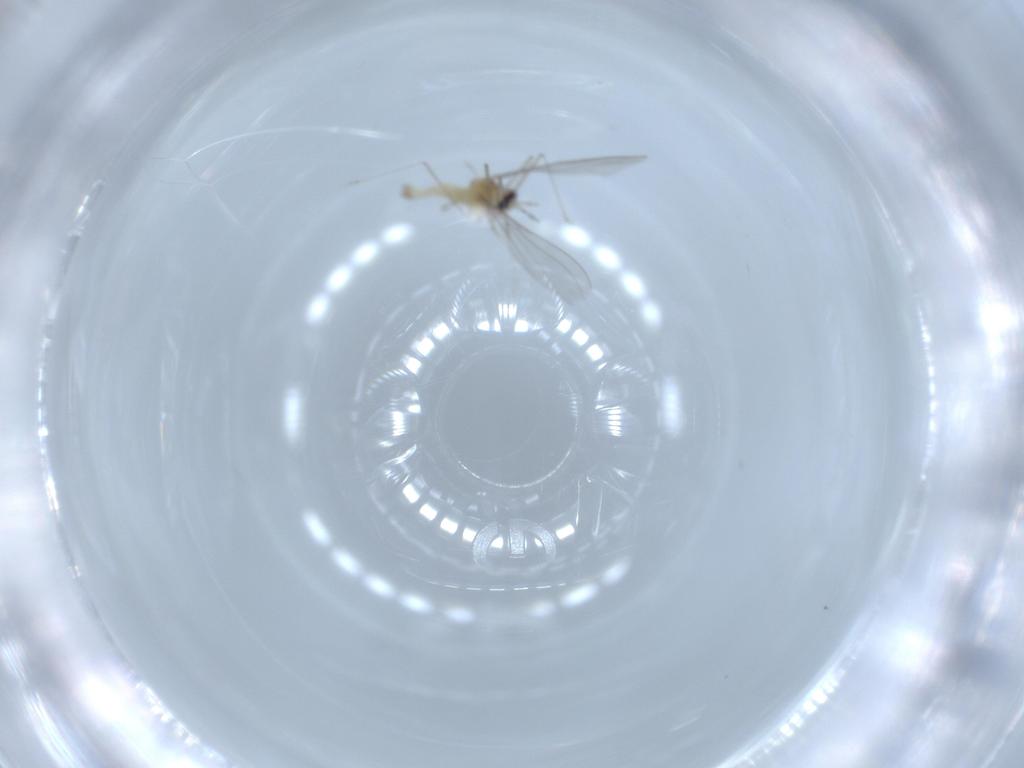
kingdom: Animalia
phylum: Arthropoda
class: Insecta
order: Diptera
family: Cecidomyiidae
